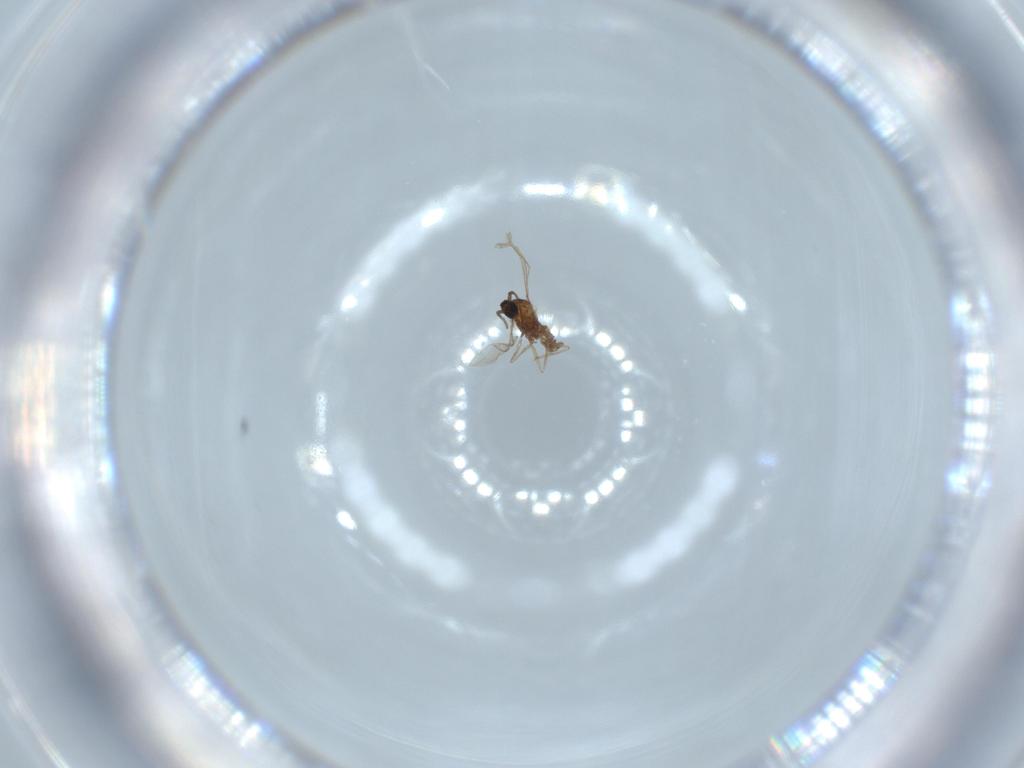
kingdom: Animalia
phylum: Arthropoda
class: Insecta
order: Diptera
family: Cecidomyiidae
